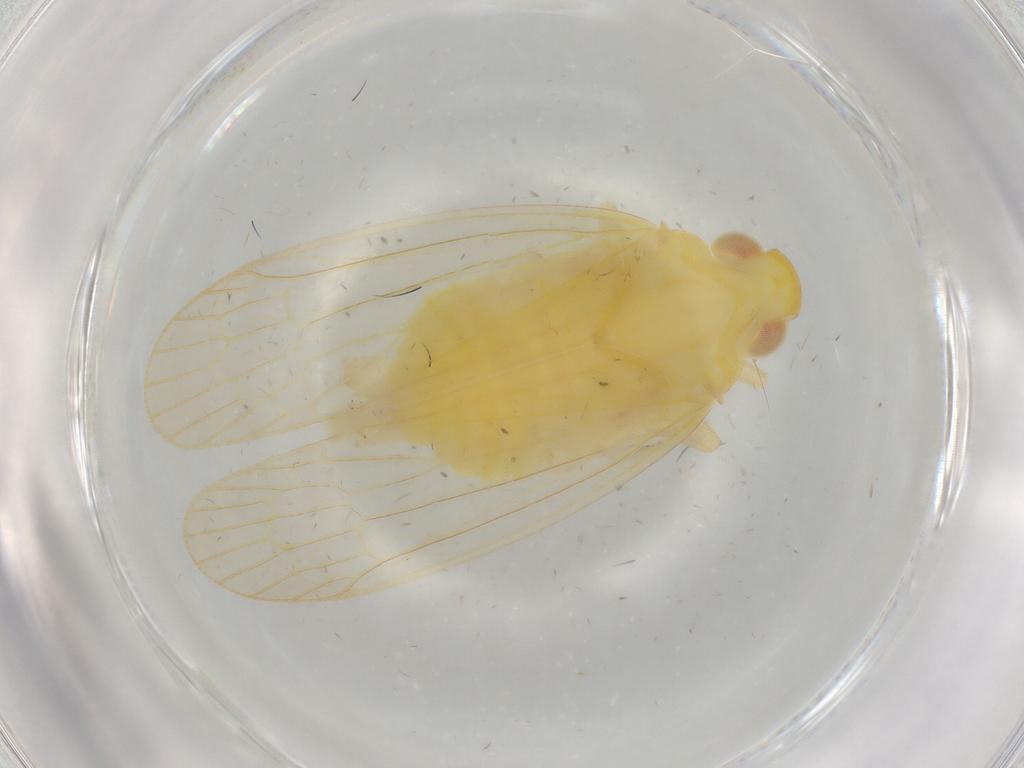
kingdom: Animalia
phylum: Arthropoda
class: Insecta
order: Hemiptera
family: Tropiduchidae
